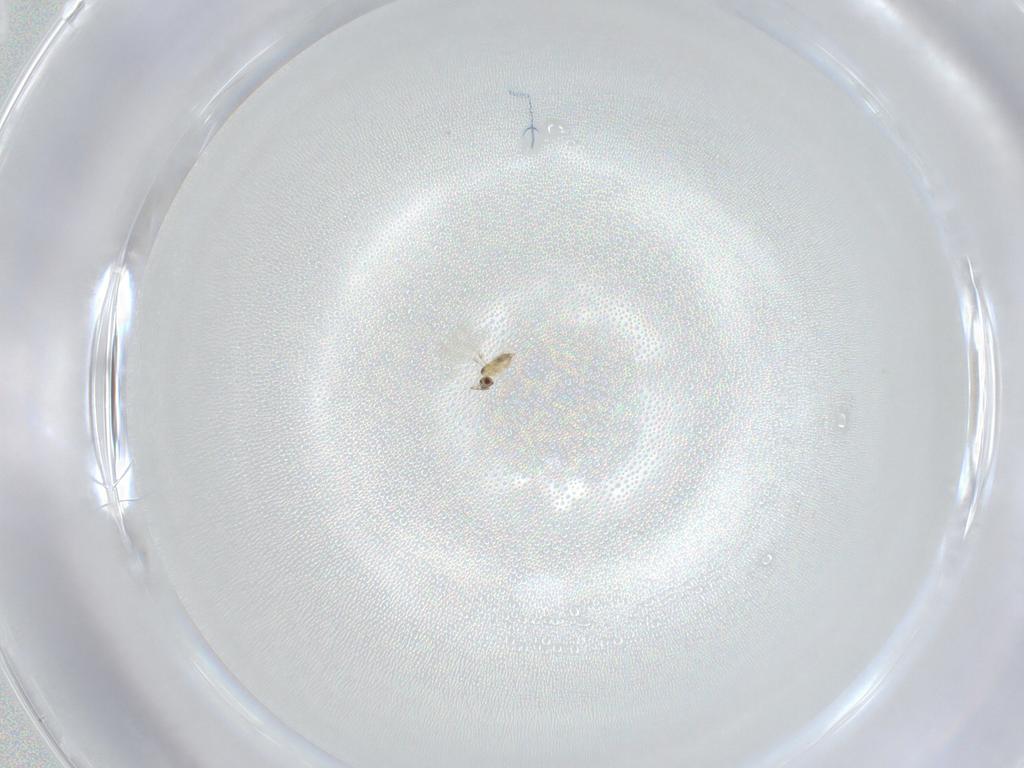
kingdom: Animalia
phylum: Arthropoda
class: Insecta
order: Hymenoptera
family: Mymaridae
